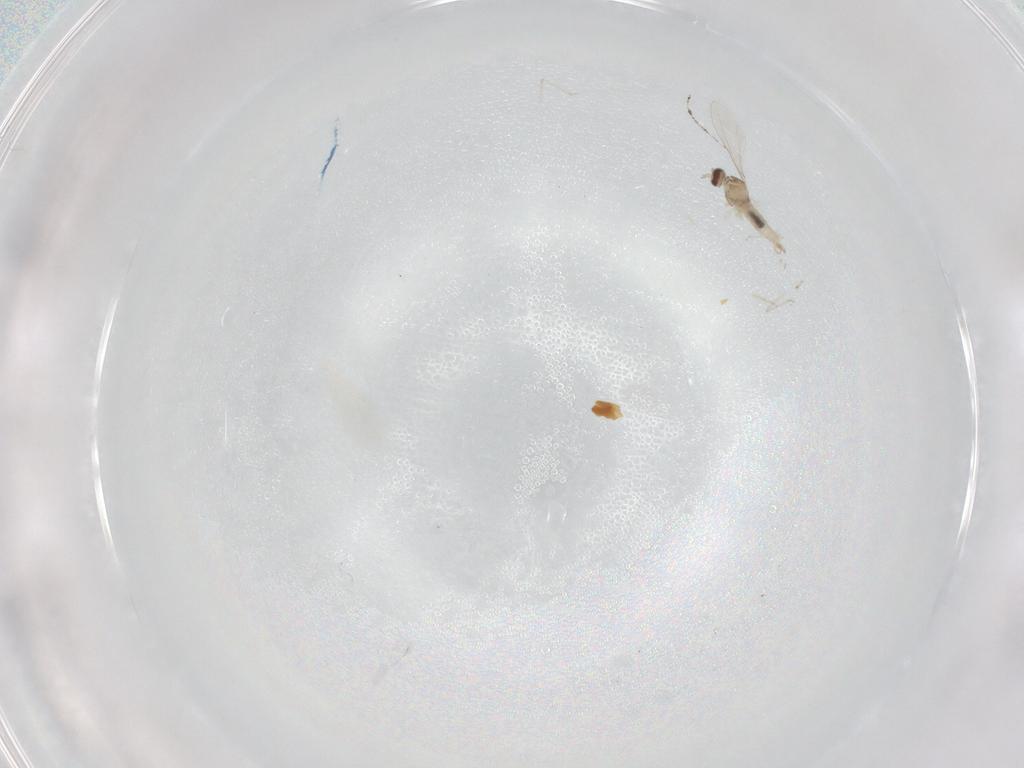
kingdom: Animalia
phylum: Arthropoda
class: Insecta
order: Diptera
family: Cecidomyiidae
